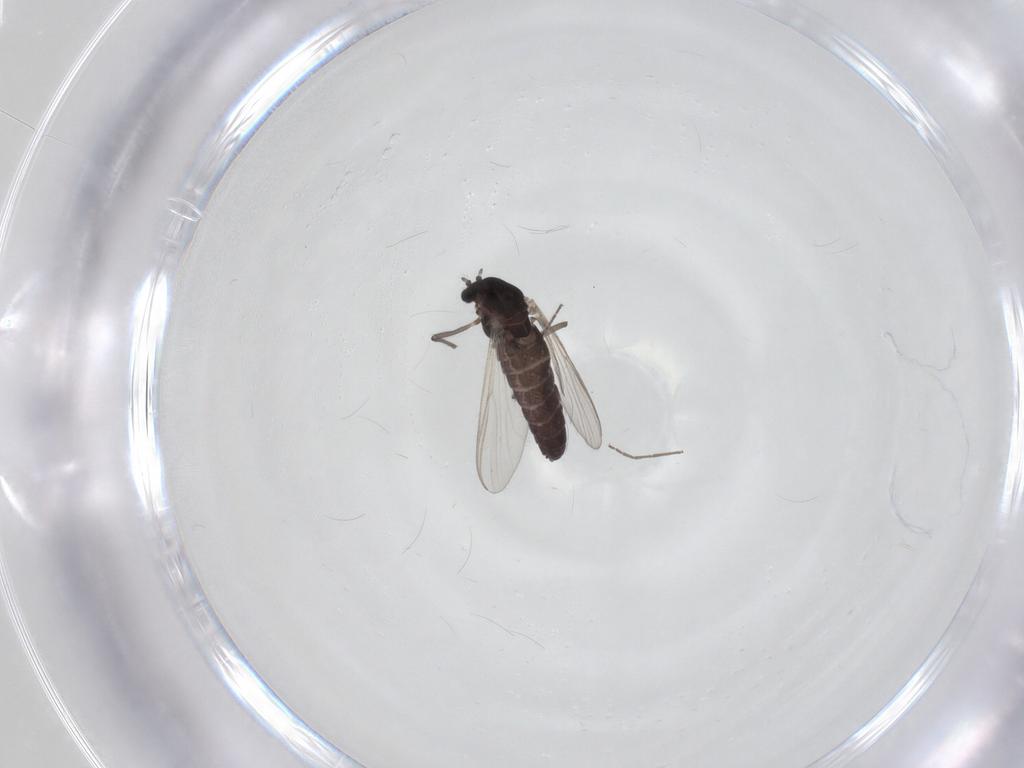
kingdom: Animalia
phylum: Arthropoda
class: Insecta
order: Diptera
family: Chironomidae
